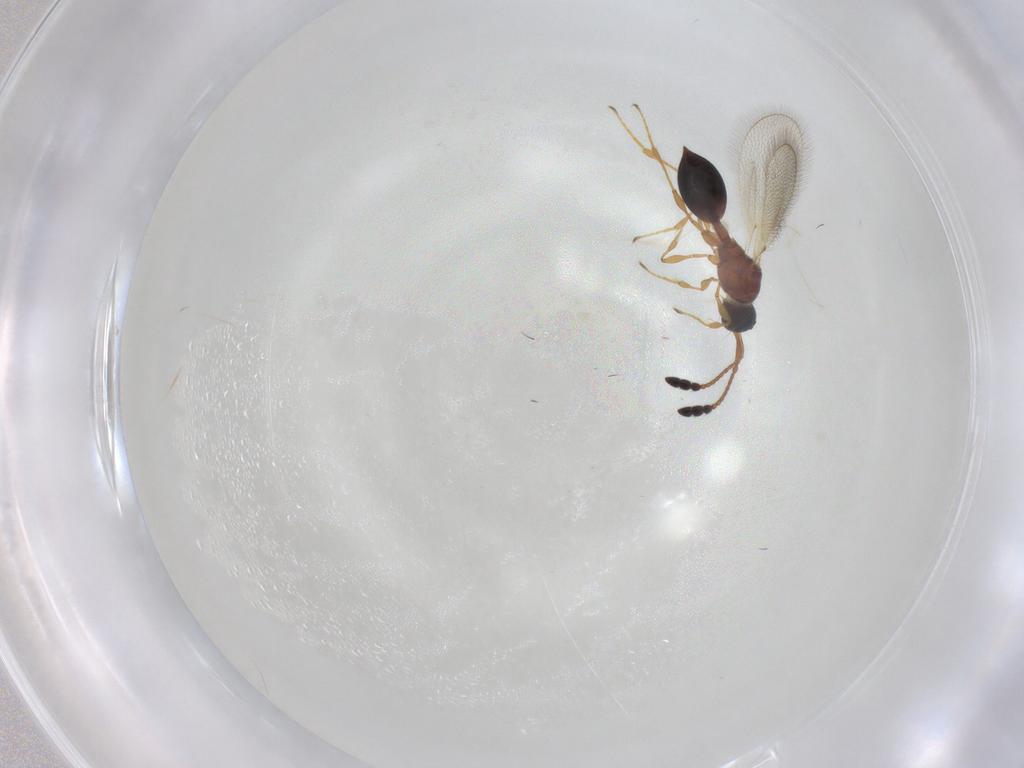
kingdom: Animalia
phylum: Arthropoda
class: Insecta
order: Hymenoptera
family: Diapriidae
